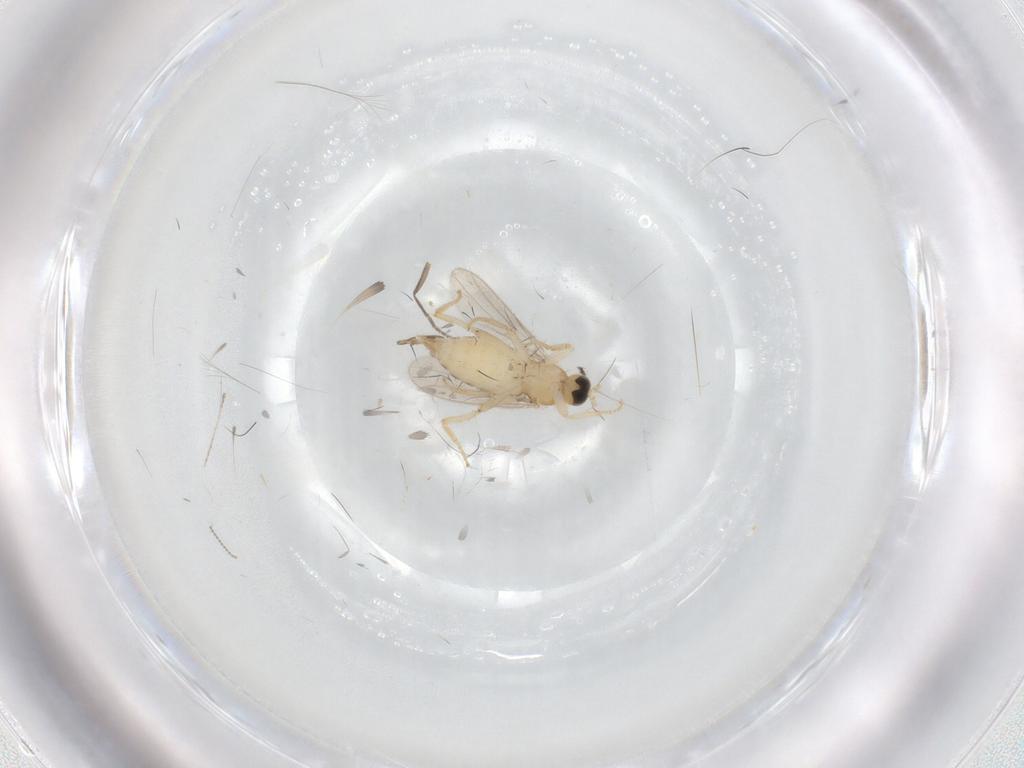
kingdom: Animalia
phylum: Arthropoda
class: Insecta
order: Diptera
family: Hybotidae
